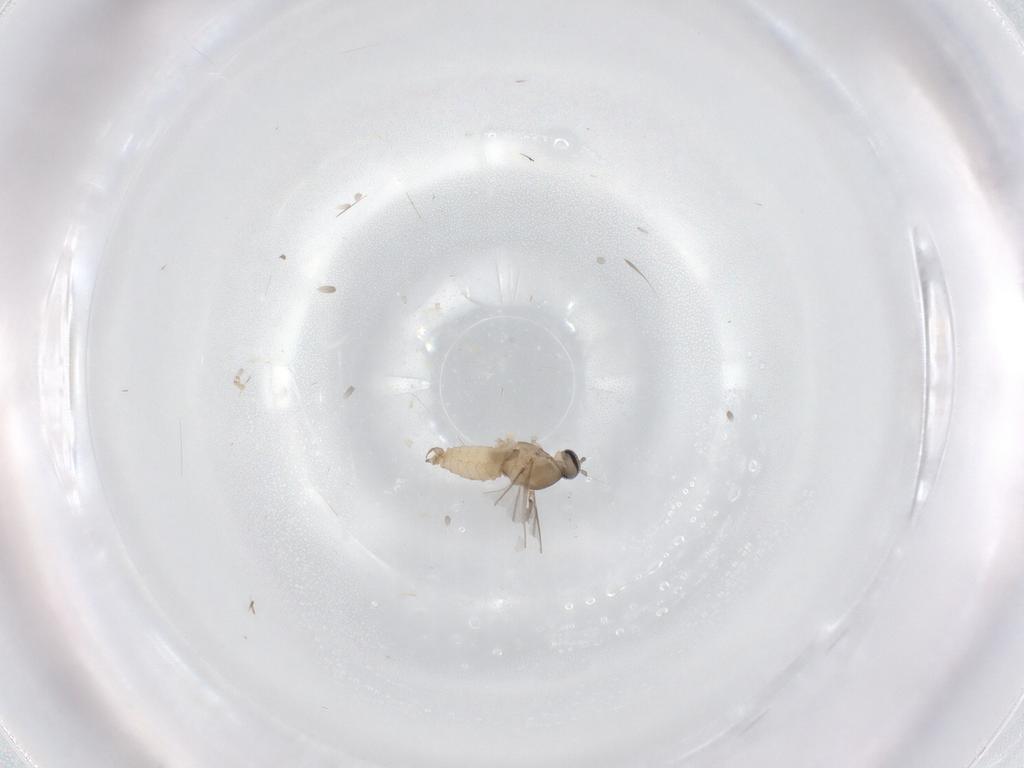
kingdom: Animalia
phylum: Arthropoda
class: Insecta
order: Diptera
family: Cecidomyiidae
